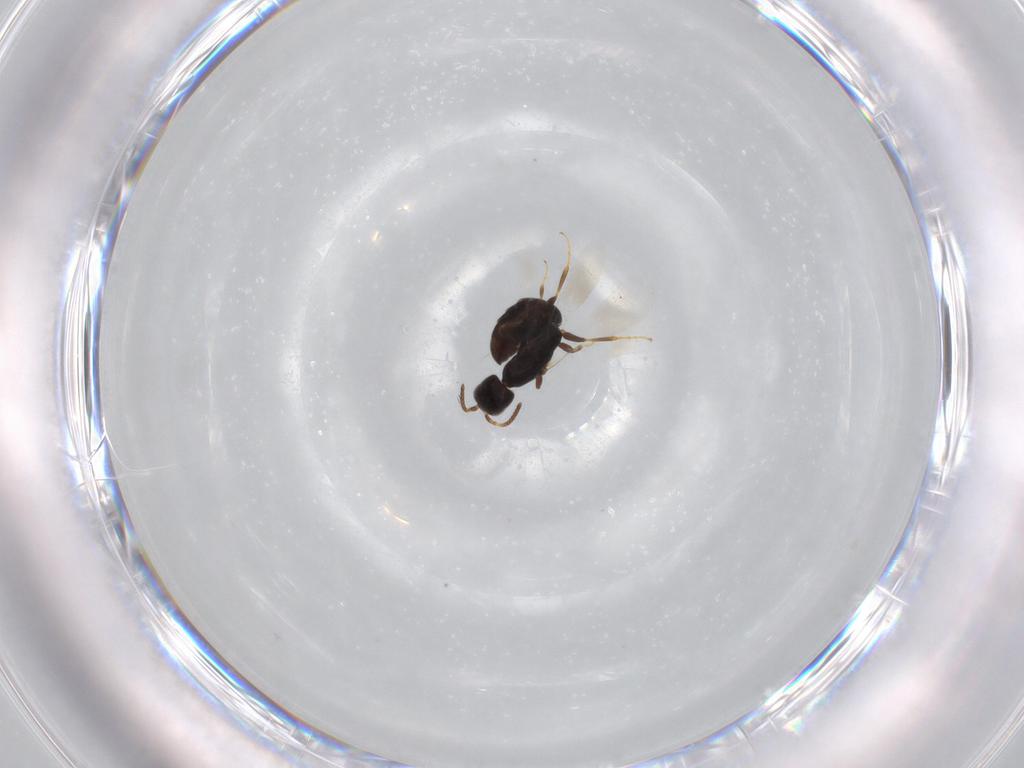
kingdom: Animalia
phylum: Arthropoda
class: Insecta
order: Hymenoptera
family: Bethylidae
